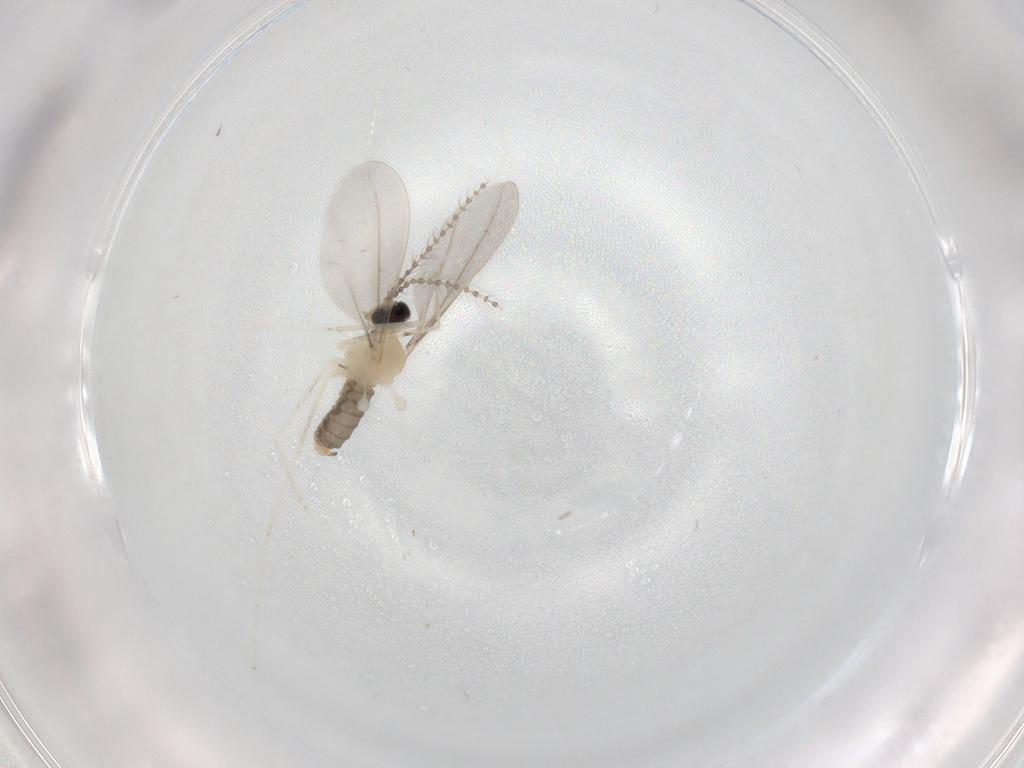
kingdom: Animalia
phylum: Arthropoda
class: Insecta
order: Diptera
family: Cecidomyiidae
